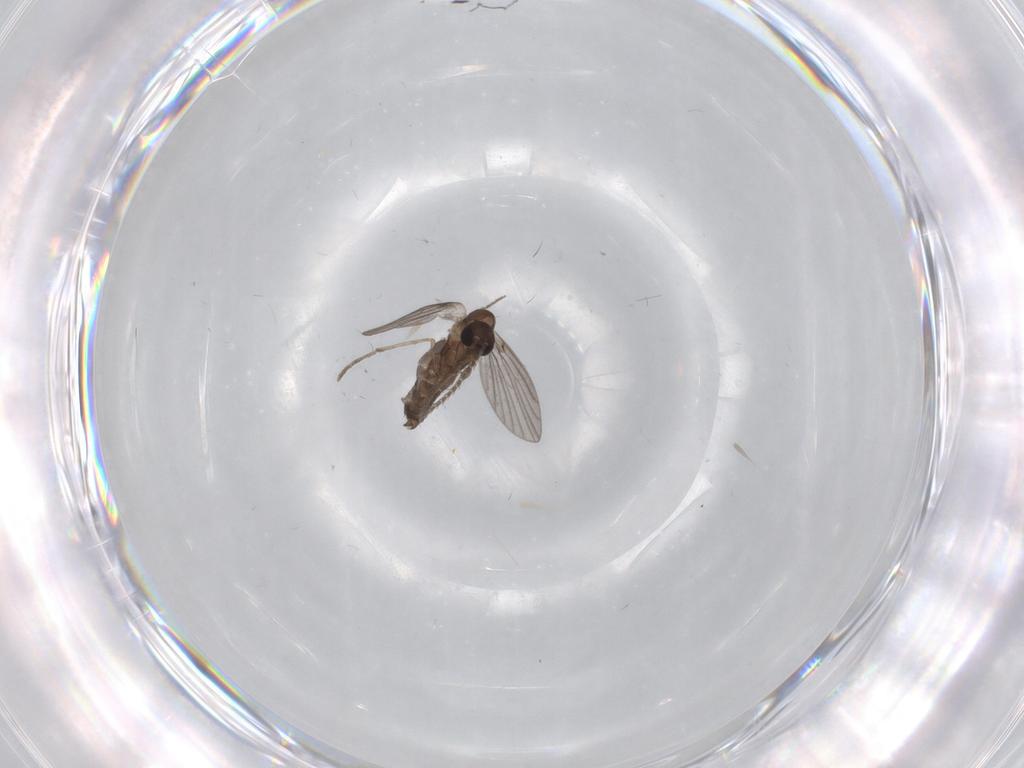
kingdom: Animalia
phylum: Arthropoda
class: Insecta
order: Diptera
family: Chironomidae
